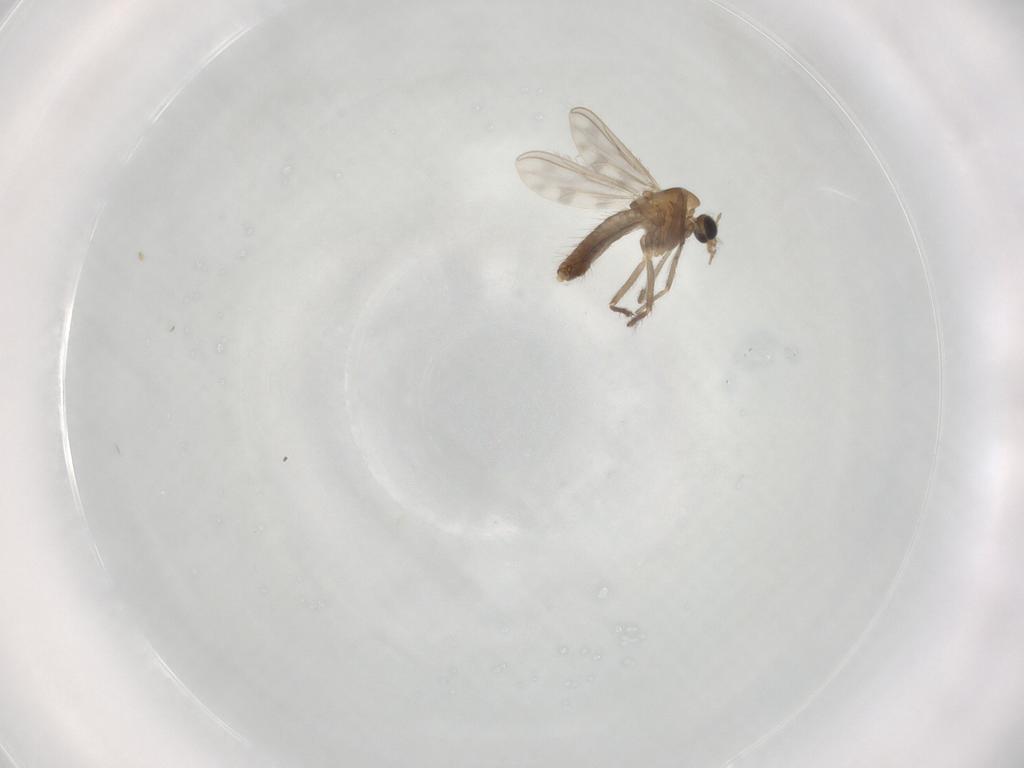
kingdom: Animalia
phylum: Arthropoda
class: Insecta
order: Diptera
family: Chironomidae
